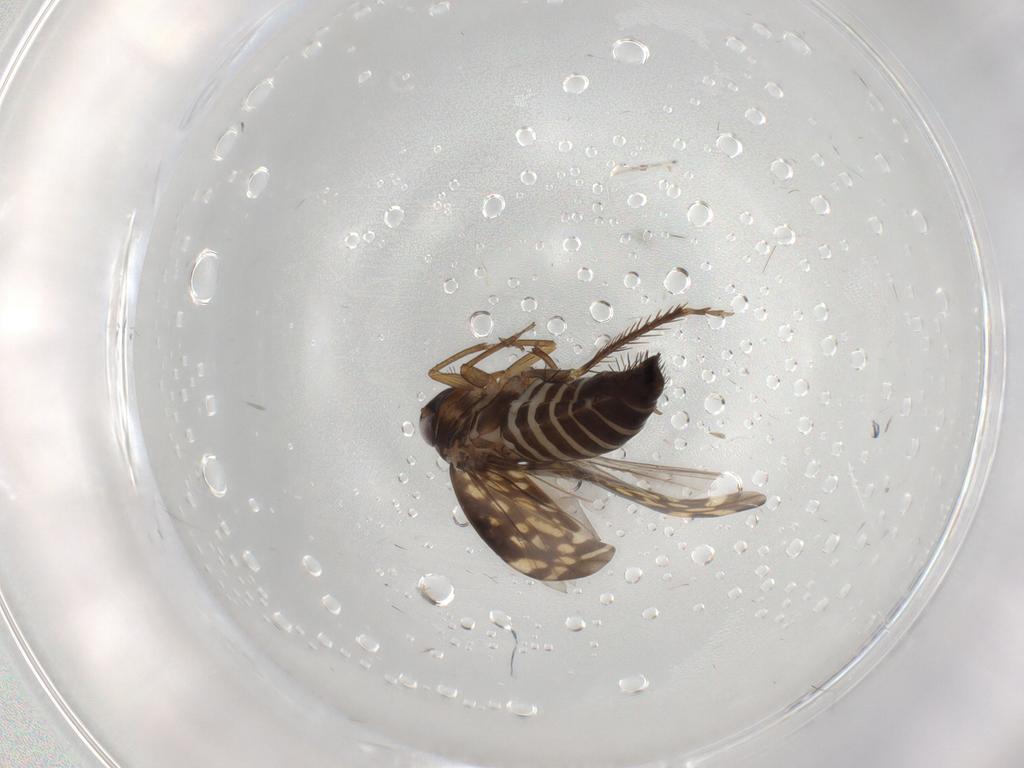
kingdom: Animalia
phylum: Arthropoda
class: Insecta
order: Hemiptera
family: Cicadellidae
